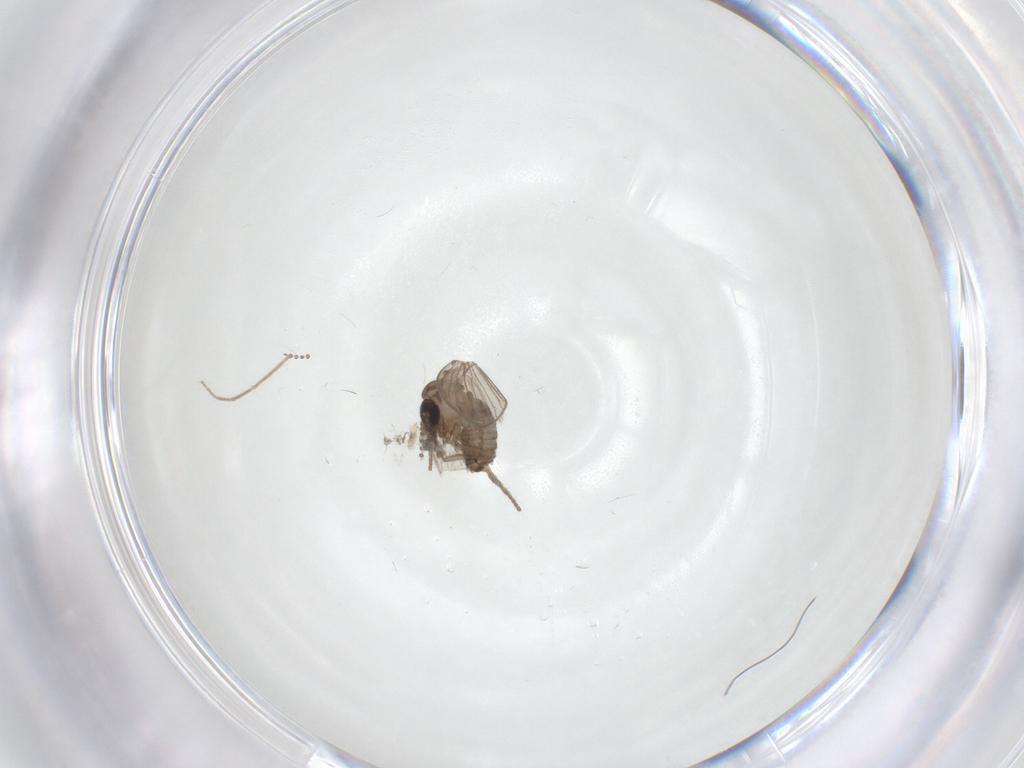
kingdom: Animalia
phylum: Arthropoda
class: Insecta
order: Diptera
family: Psychodidae
